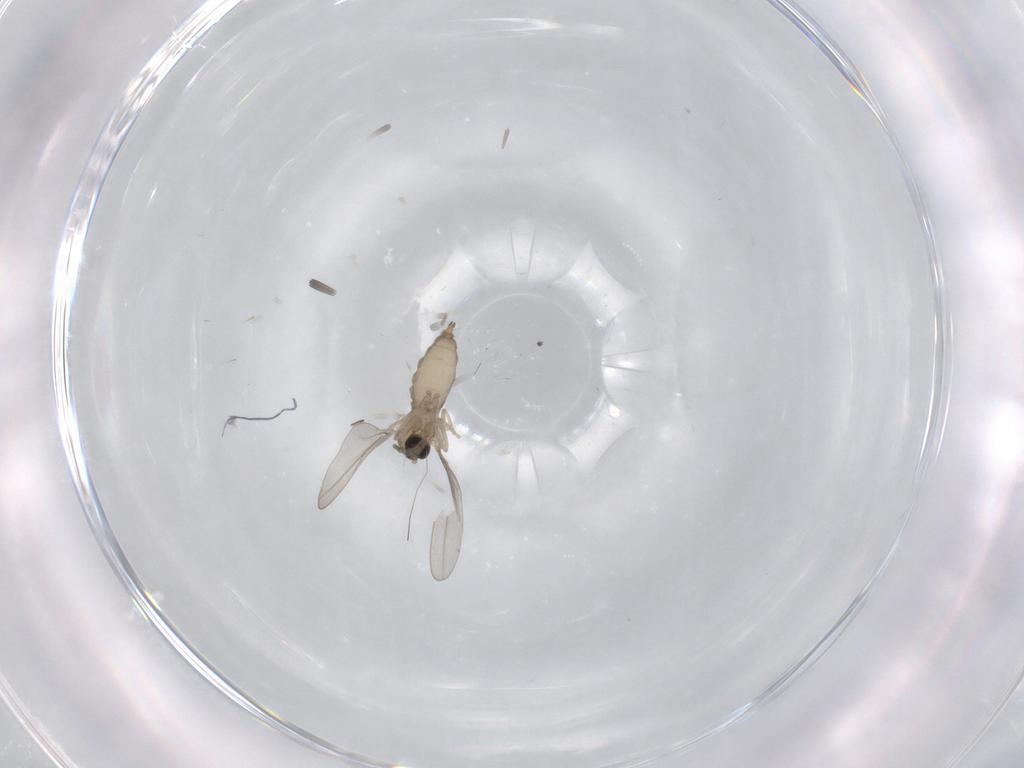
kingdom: Animalia
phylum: Arthropoda
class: Insecta
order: Diptera
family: Cecidomyiidae
